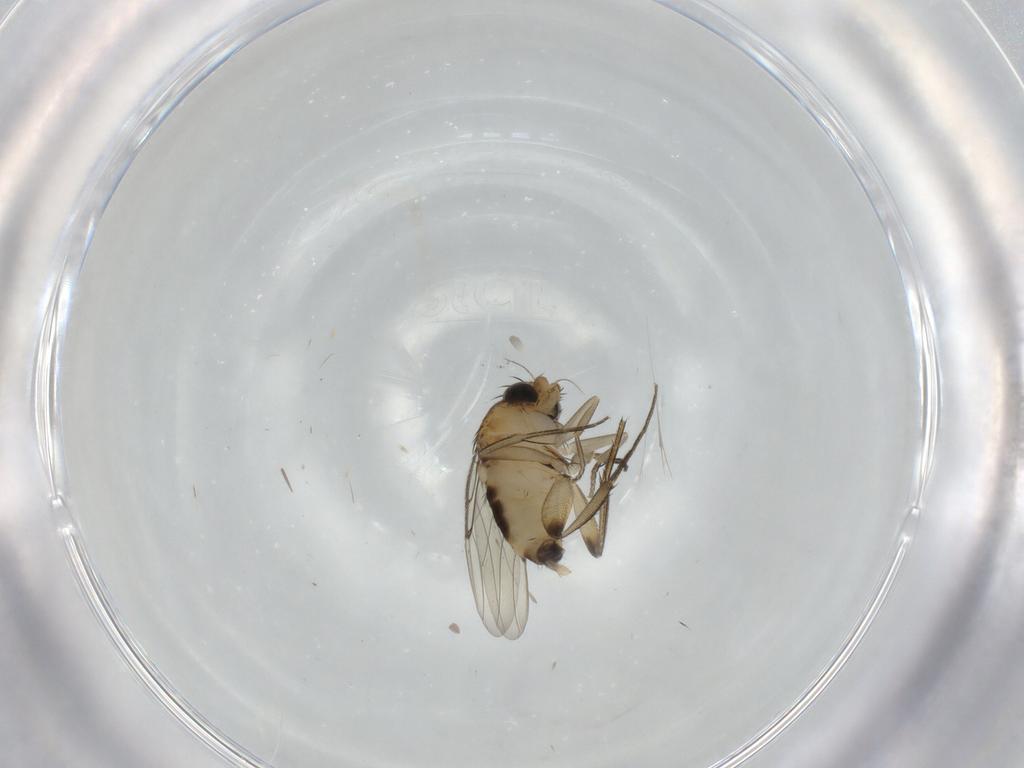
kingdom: Animalia
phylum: Arthropoda
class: Insecta
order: Diptera
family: Phoridae
